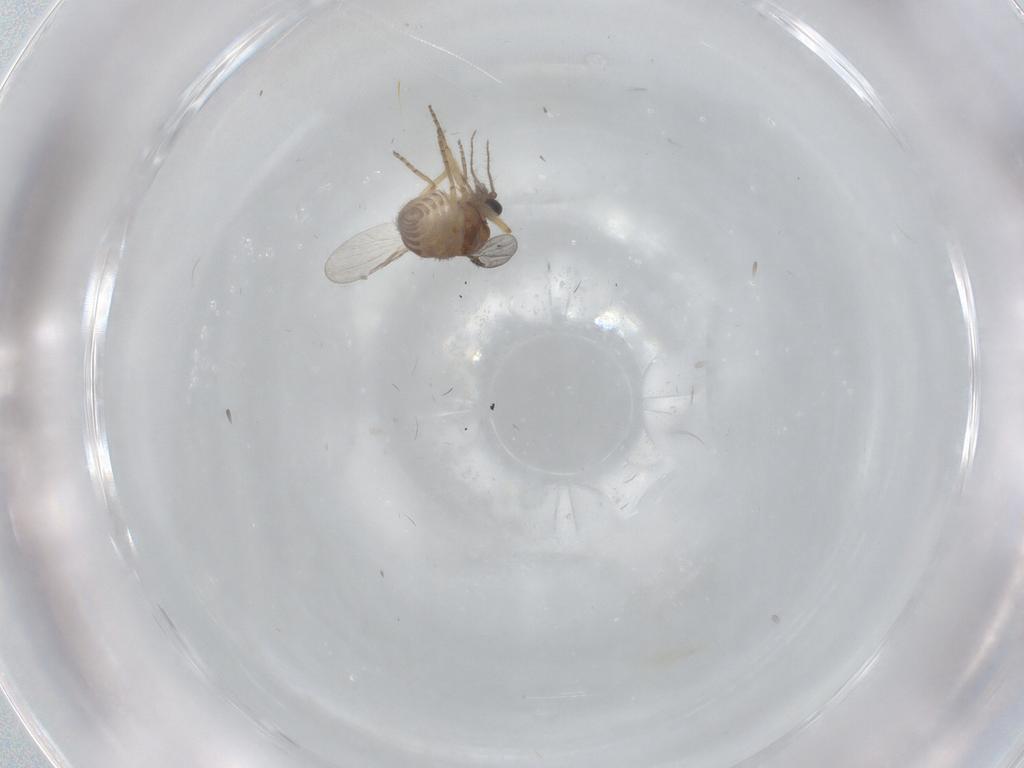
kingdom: Animalia
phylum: Arthropoda
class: Insecta
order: Diptera
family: Ceratopogonidae
